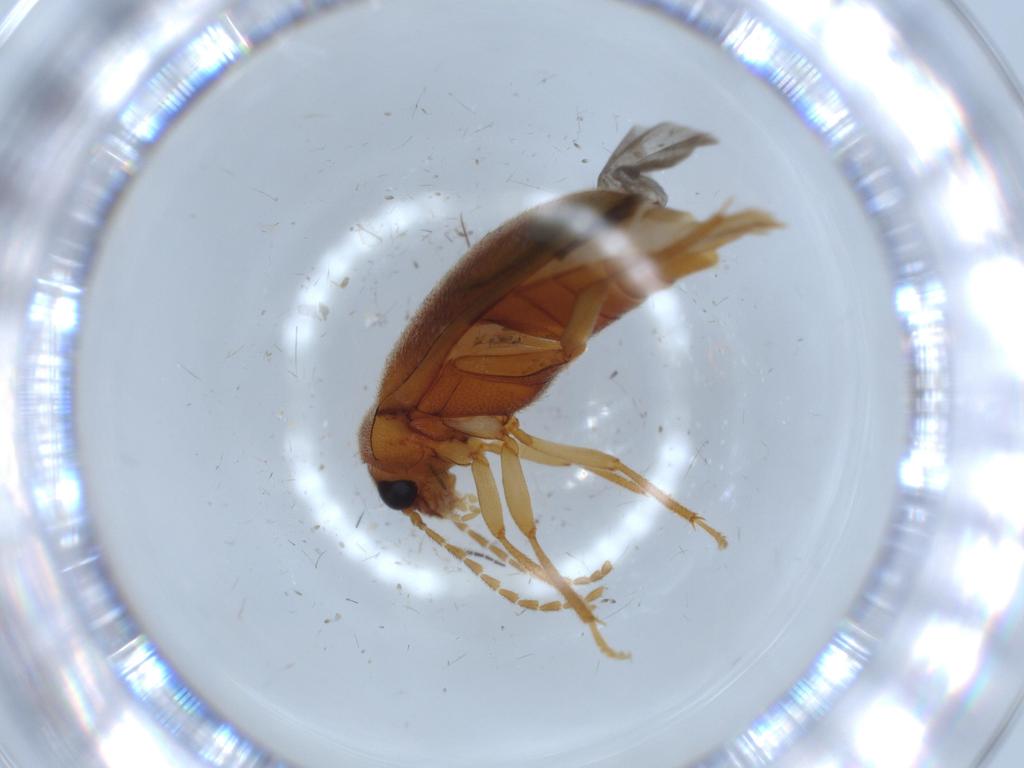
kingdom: Animalia
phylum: Arthropoda
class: Insecta
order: Coleoptera
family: Ptilodactylidae
